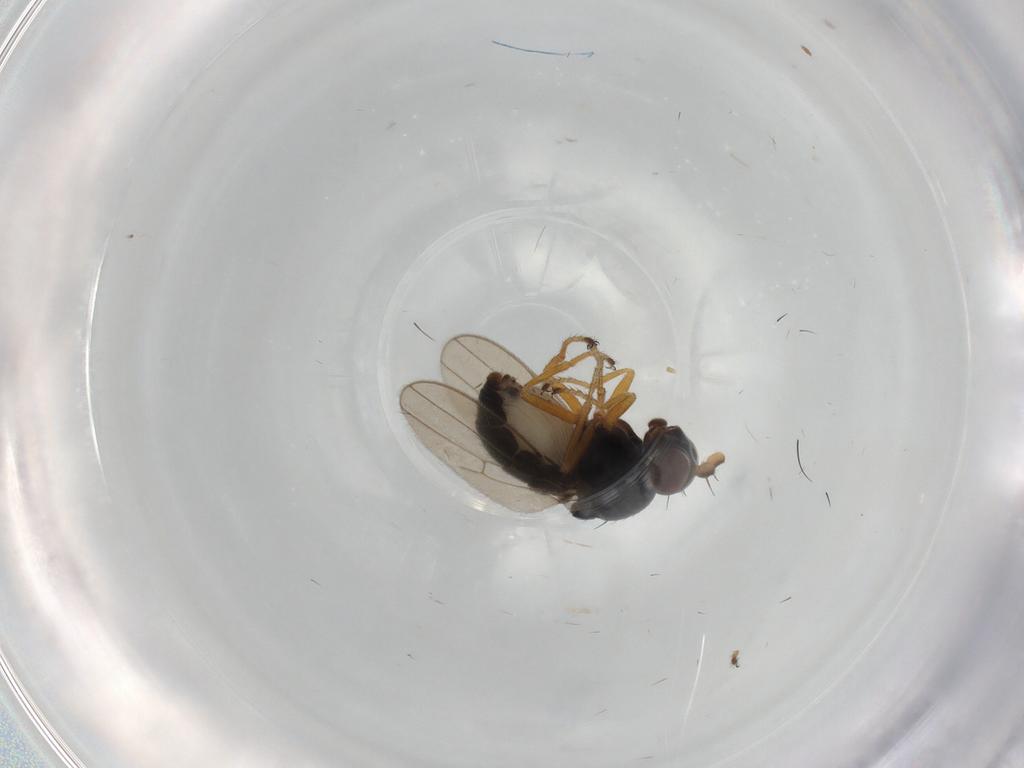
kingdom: Animalia
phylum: Arthropoda
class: Insecta
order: Diptera
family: Ephydridae
